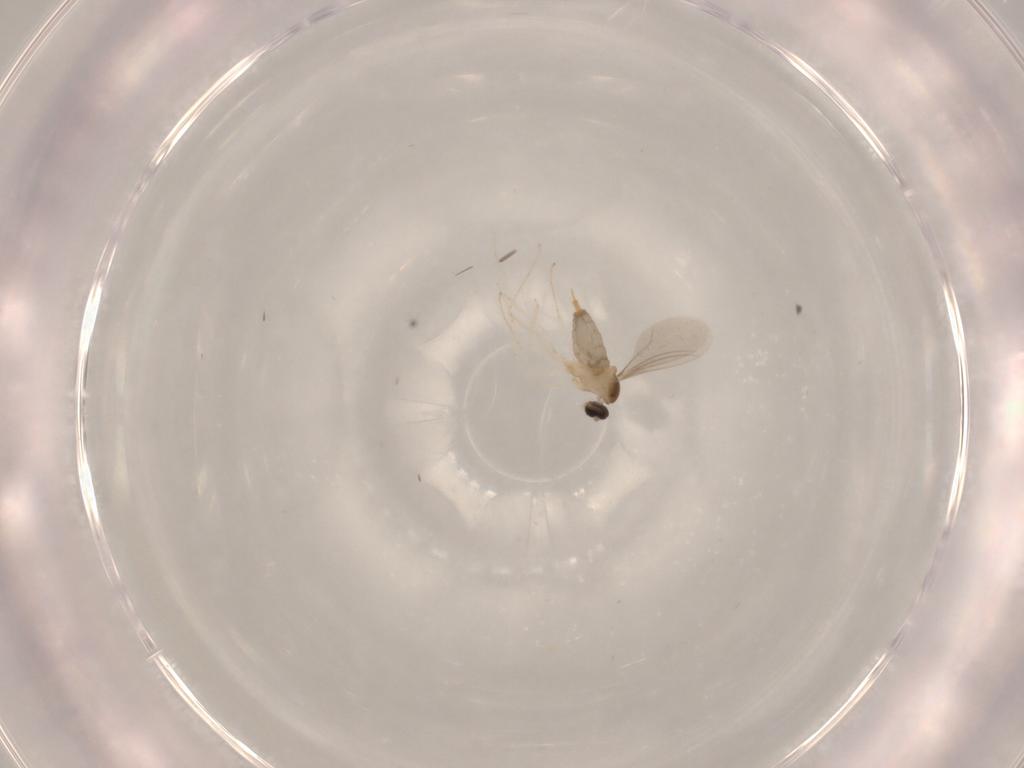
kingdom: Animalia
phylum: Arthropoda
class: Insecta
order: Diptera
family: Cecidomyiidae
